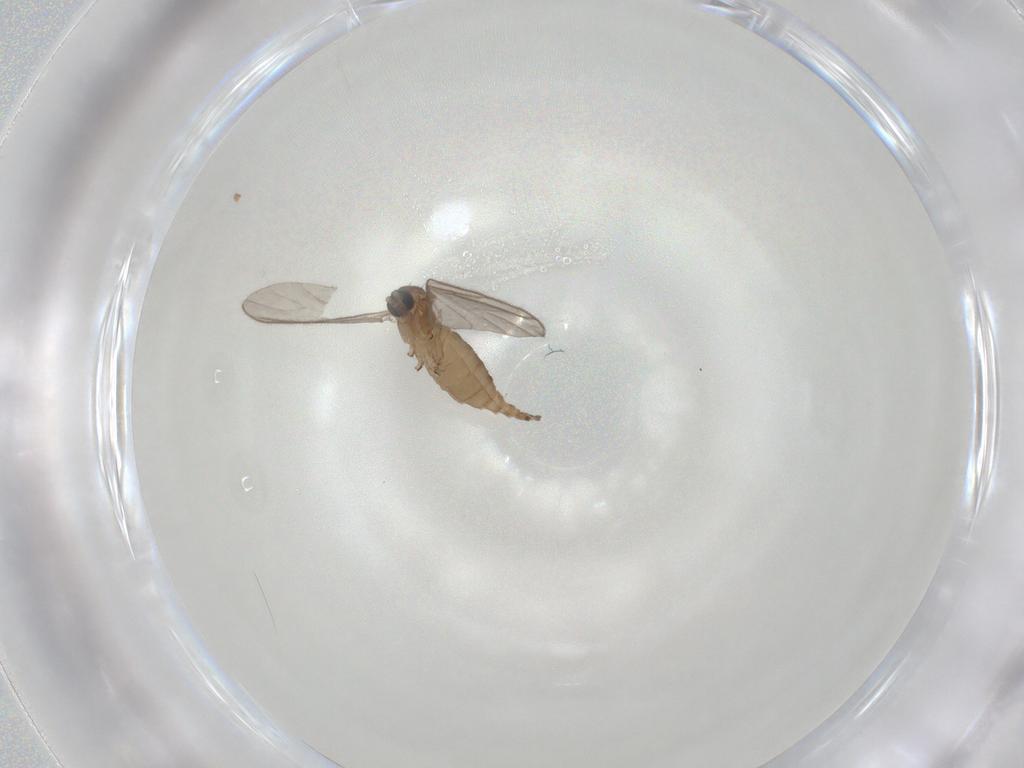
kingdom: Animalia
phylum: Arthropoda
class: Insecta
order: Diptera
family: Sciaridae
